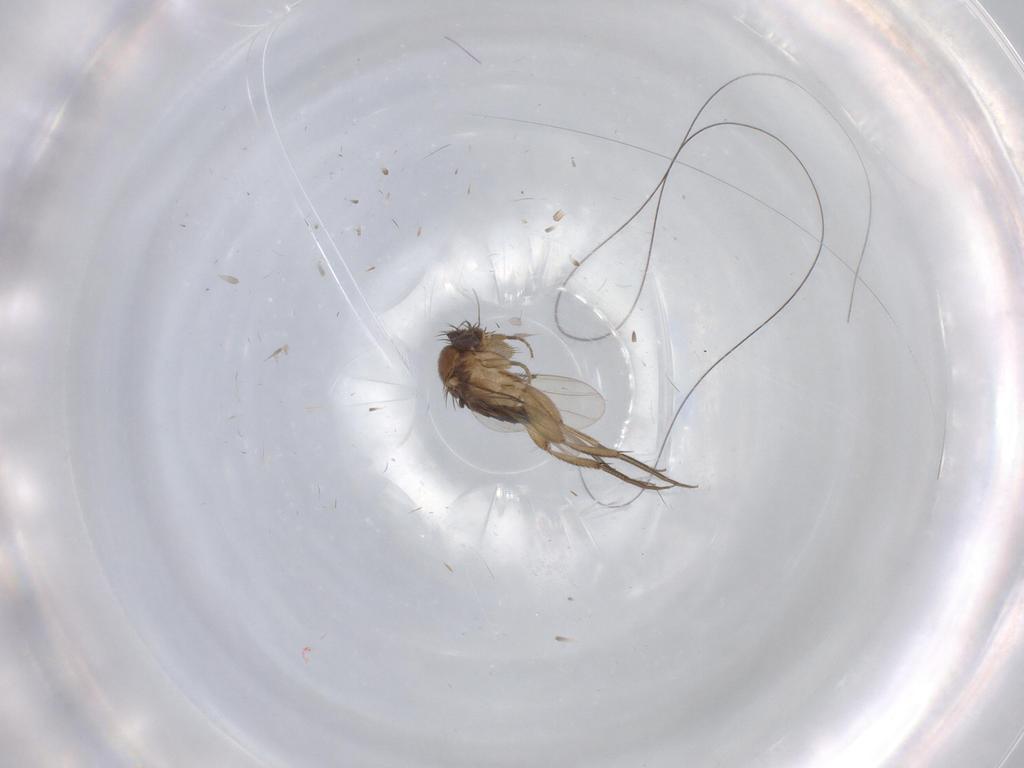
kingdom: Animalia
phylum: Arthropoda
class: Insecta
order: Diptera
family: Phoridae
